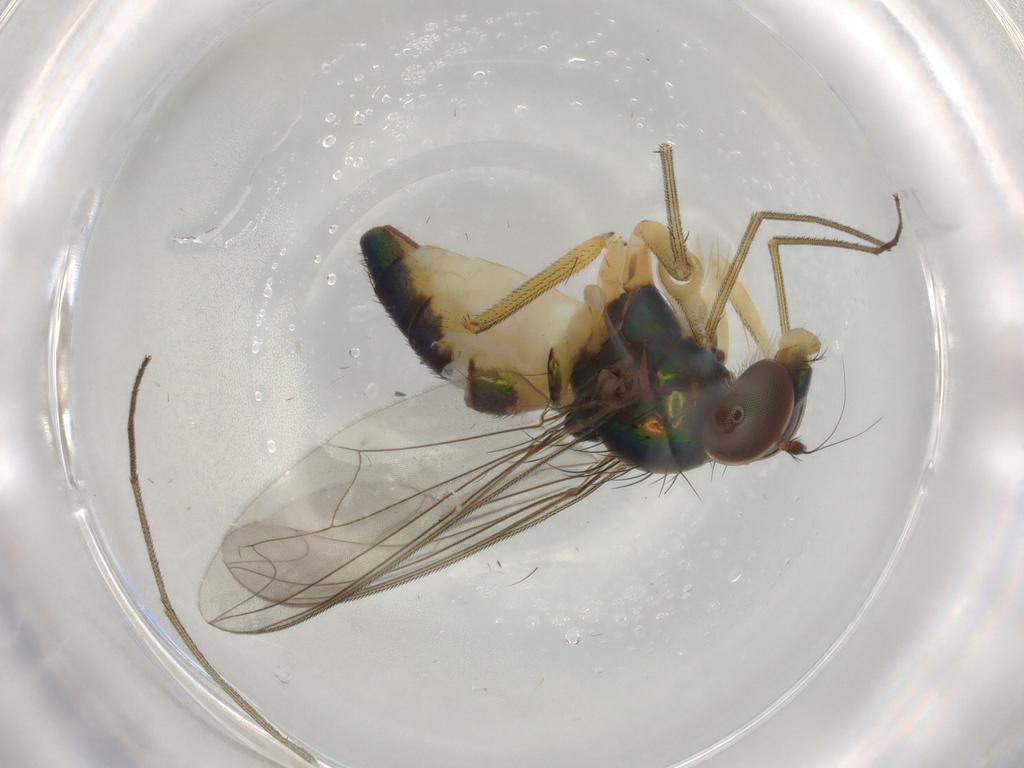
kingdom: Animalia
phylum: Arthropoda
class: Insecta
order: Diptera
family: Dolichopodidae
